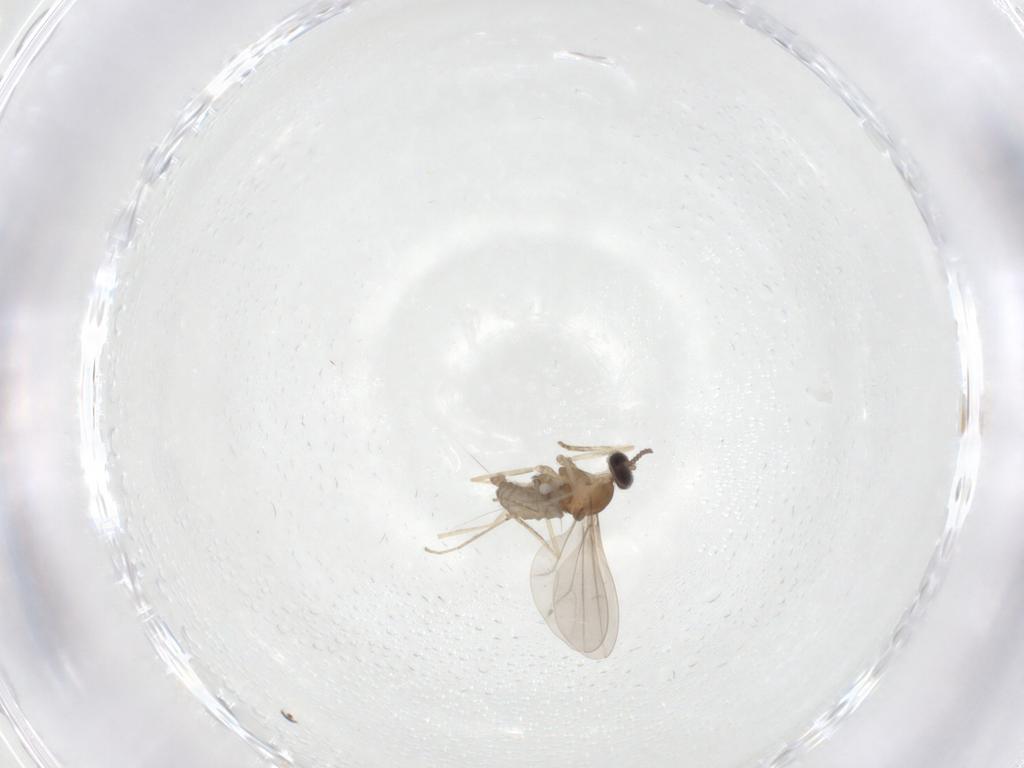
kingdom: Animalia
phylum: Arthropoda
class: Insecta
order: Diptera
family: Cecidomyiidae
